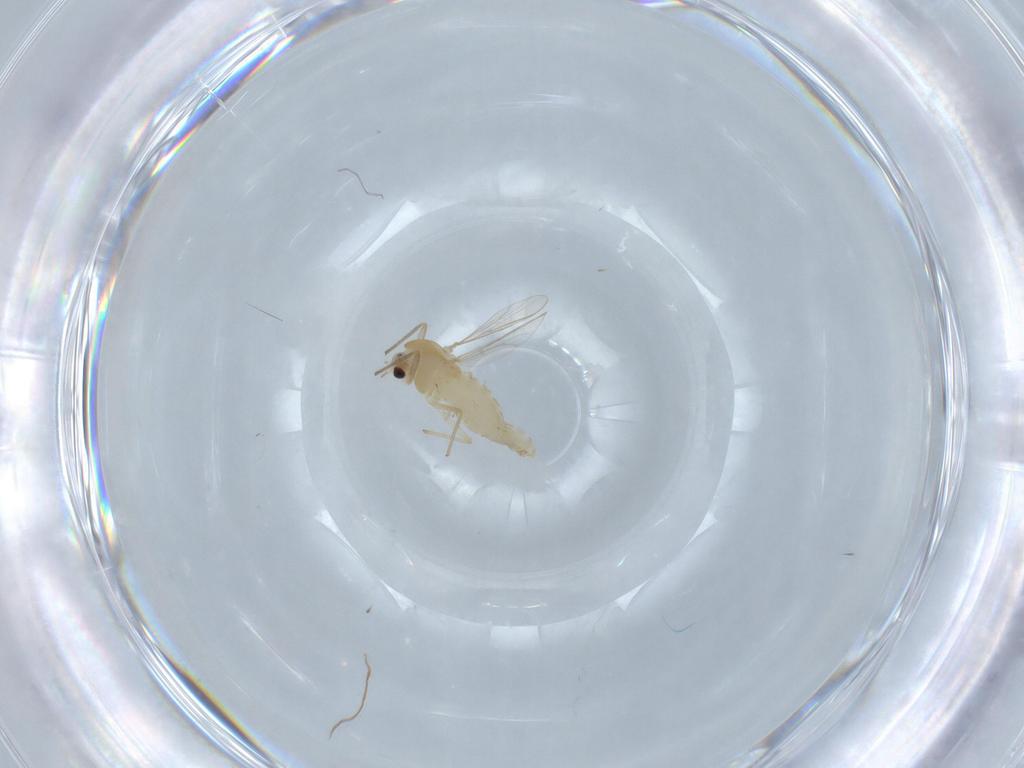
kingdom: Animalia
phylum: Arthropoda
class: Insecta
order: Diptera
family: Chironomidae
